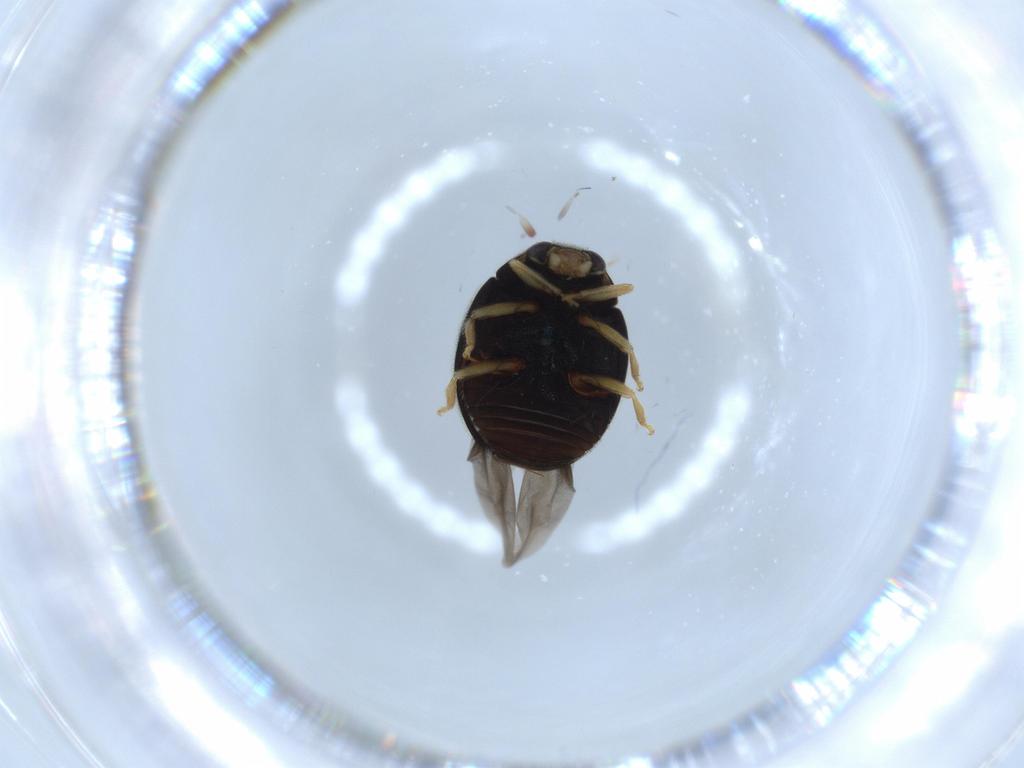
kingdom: Animalia
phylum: Arthropoda
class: Insecta
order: Coleoptera
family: Coccinellidae
